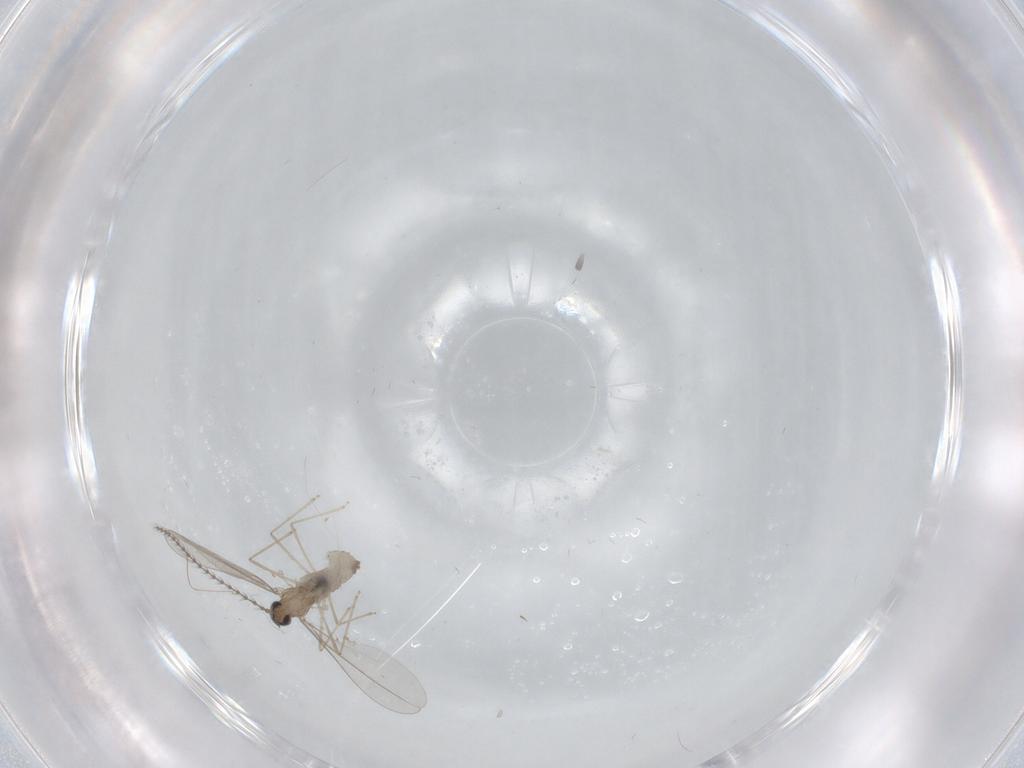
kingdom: Animalia
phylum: Arthropoda
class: Insecta
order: Diptera
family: Cecidomyiidae
